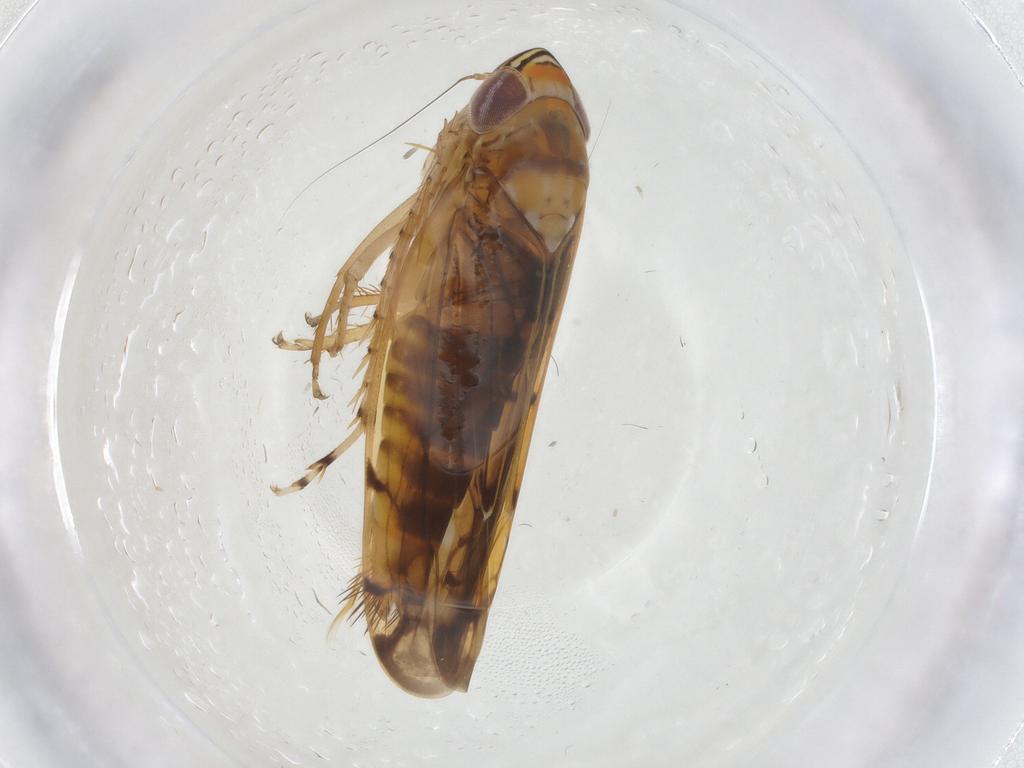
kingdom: Animalia
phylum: Arthropoda
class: Insecta
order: Hemiptera
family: Cicadellidae
